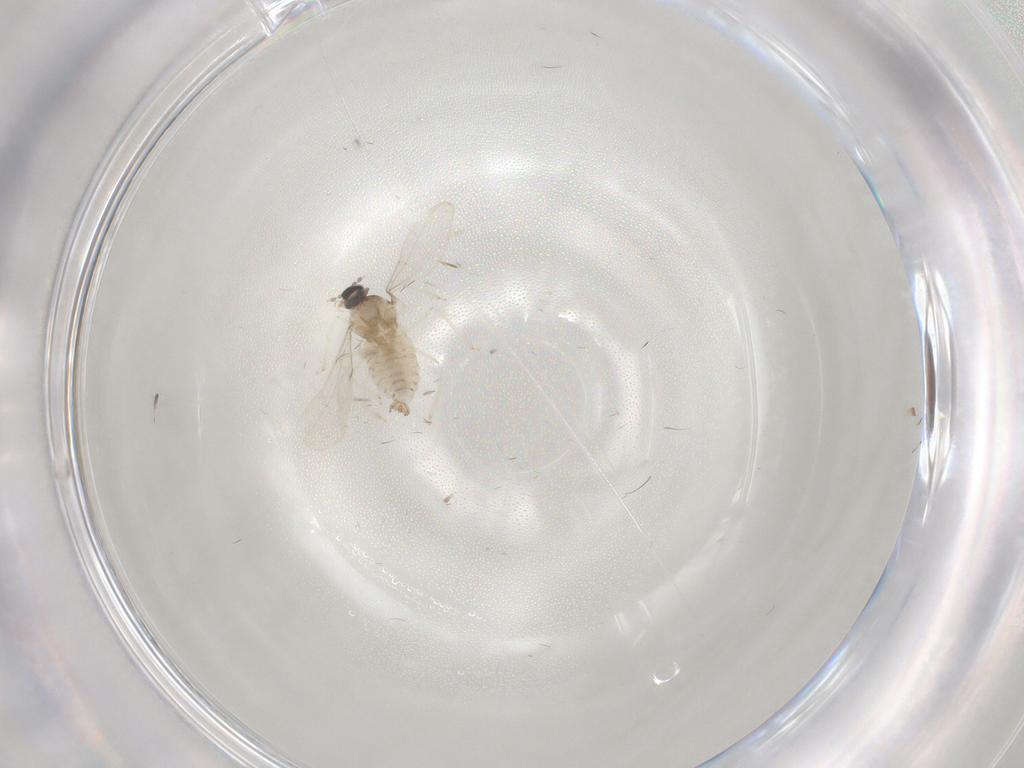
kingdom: Animalia
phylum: Arthropoda
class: Insecta
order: Diptera
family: Cecidomyiidae
